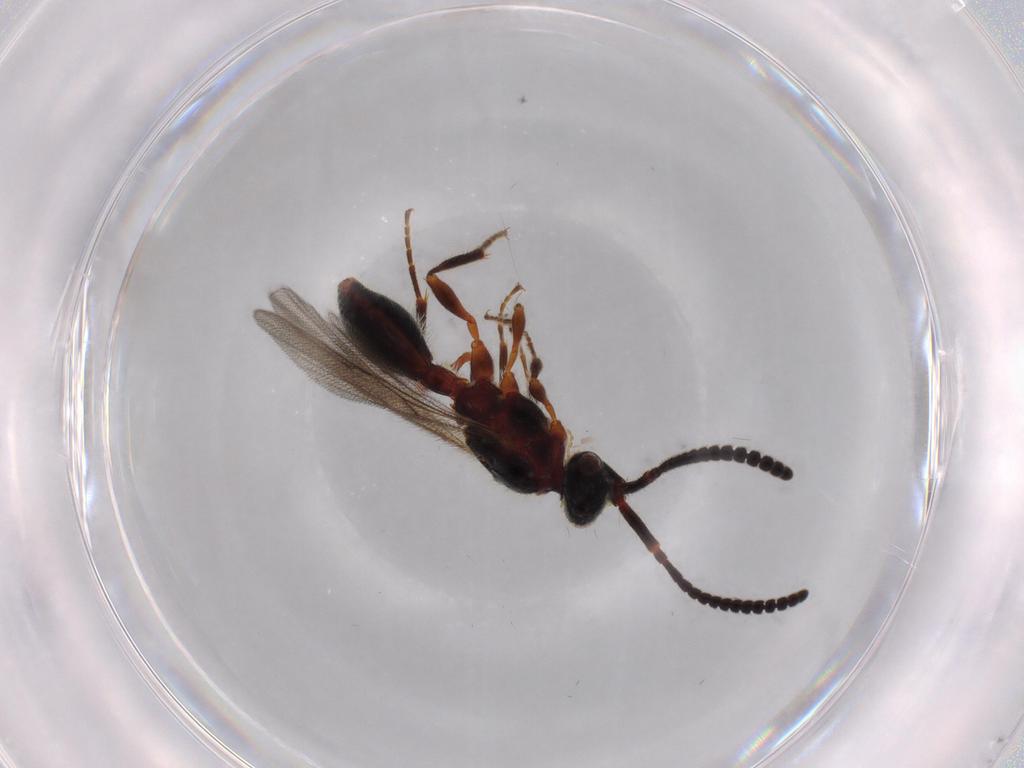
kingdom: Animalia
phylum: Arthropoda
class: Insecta
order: Hymenoptera
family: Diapriidae
